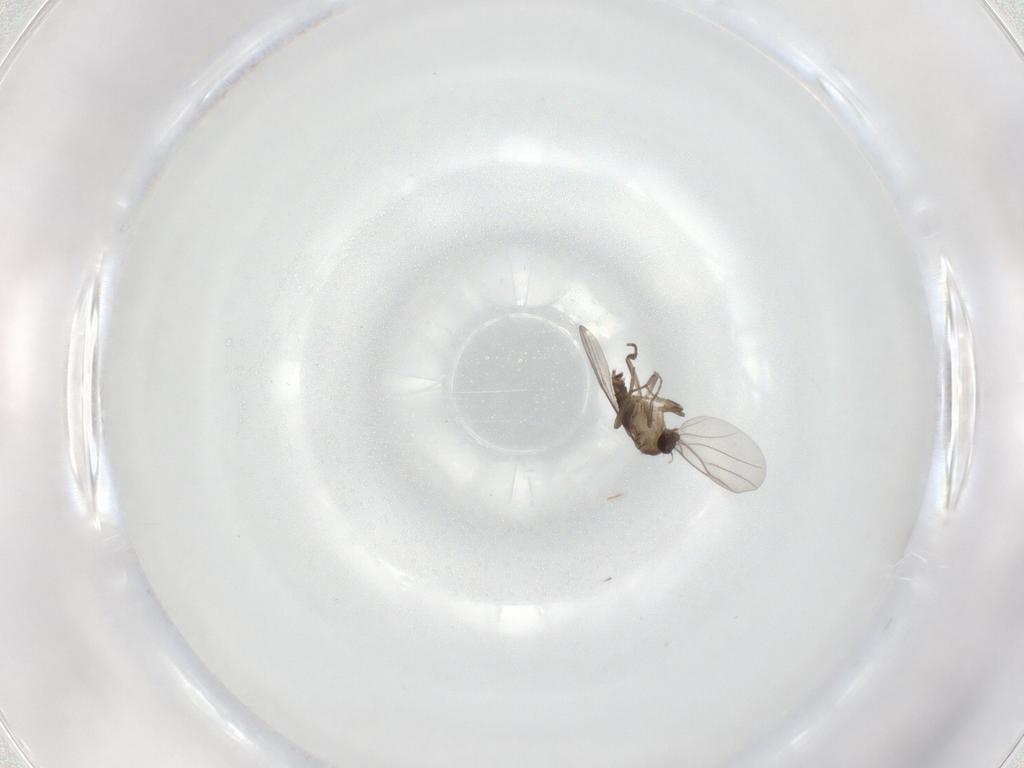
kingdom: Animalia
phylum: Arthropoda
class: Insecta
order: Diptera
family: Phoridae
